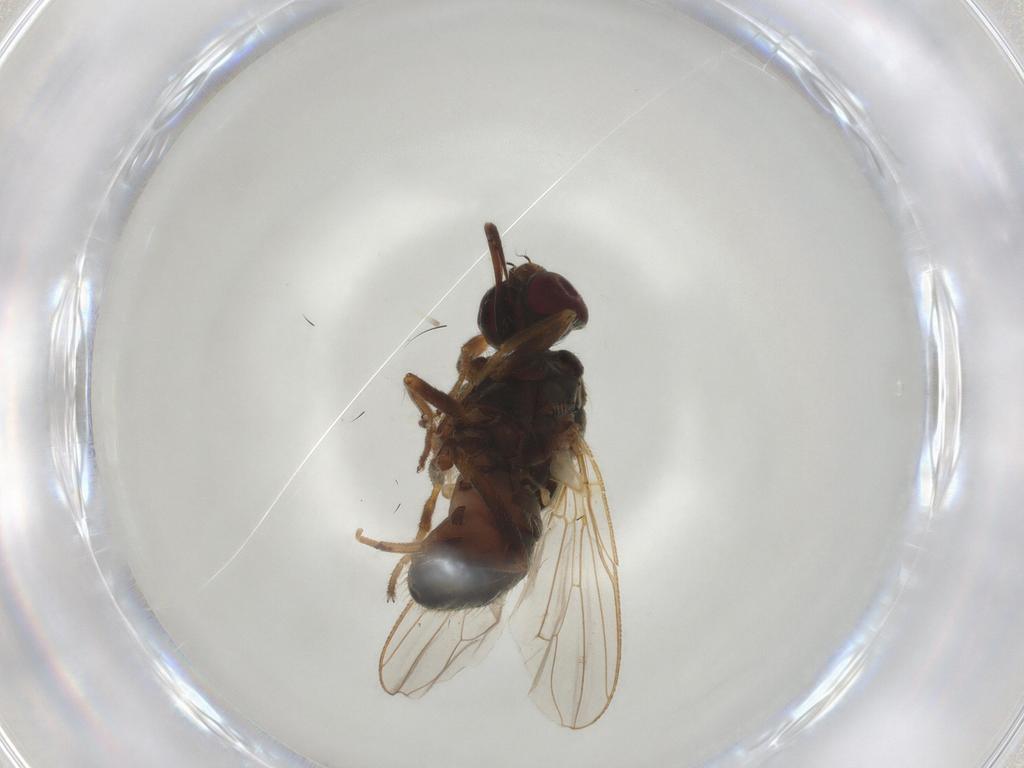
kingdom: Animalia
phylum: Arthropoda
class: Insecta
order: Diptera
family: Muscidae
